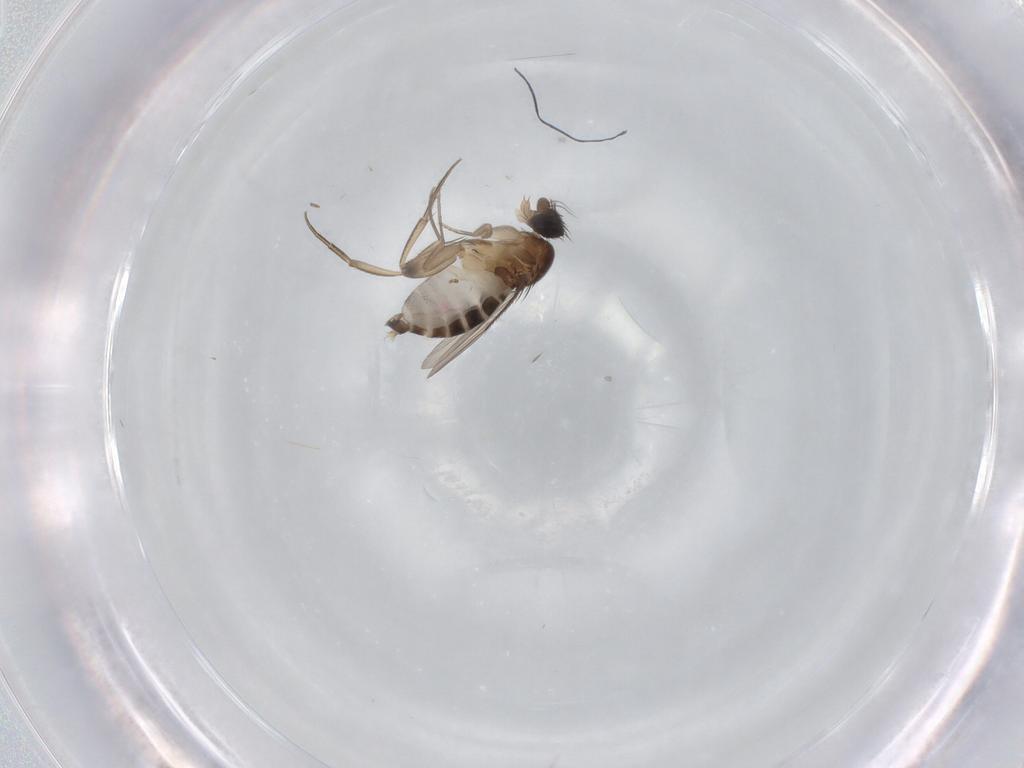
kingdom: Animalia
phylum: Arthropoda
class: Insecta
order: Diptera
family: Phoridae
